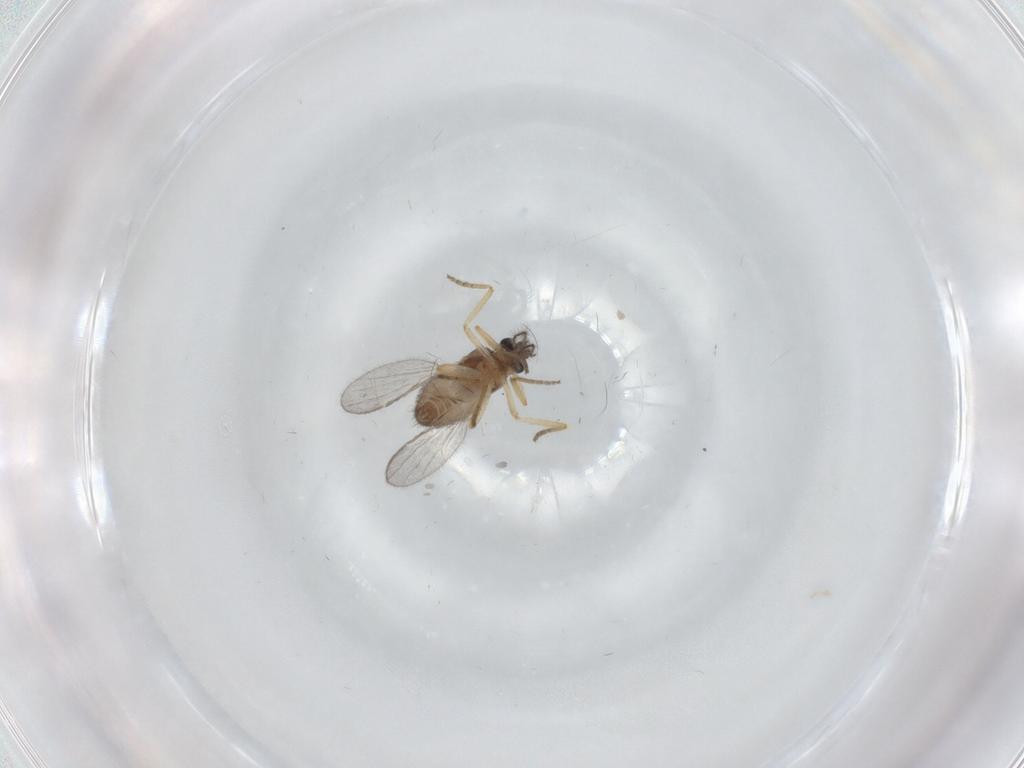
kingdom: Animalia
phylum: Arthropoda
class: Insecta
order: Diptera
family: Ceratopogonidae
